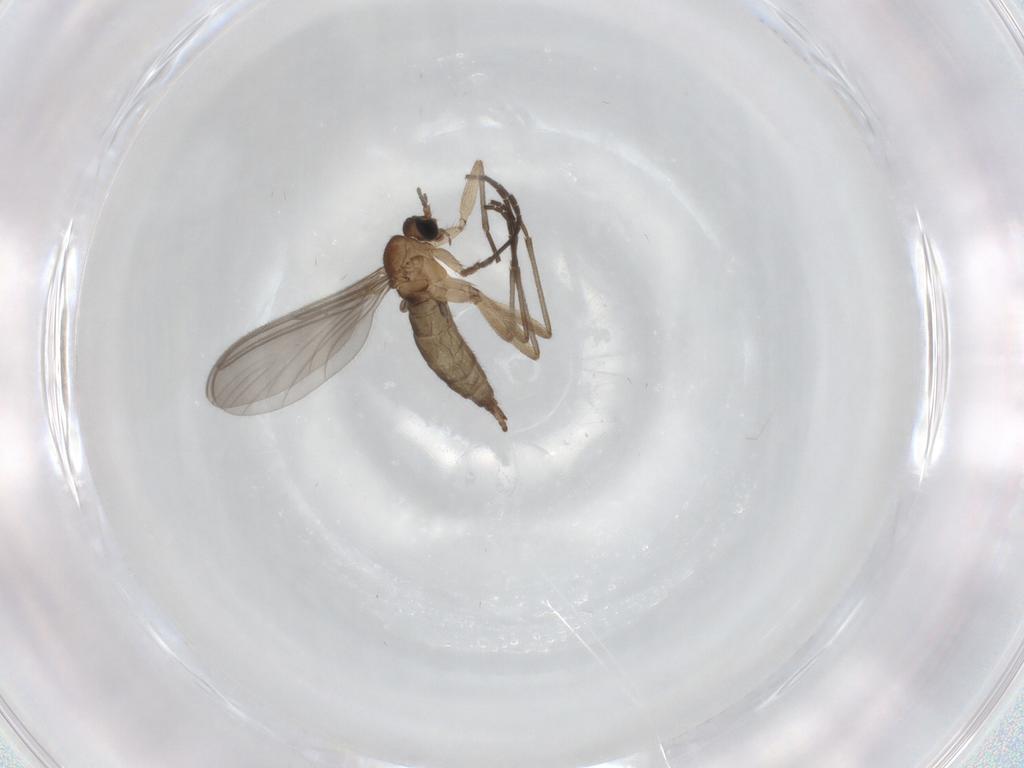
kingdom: Animalia
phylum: Arthropoda
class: Insecta
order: Diptera
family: Sciaridae
